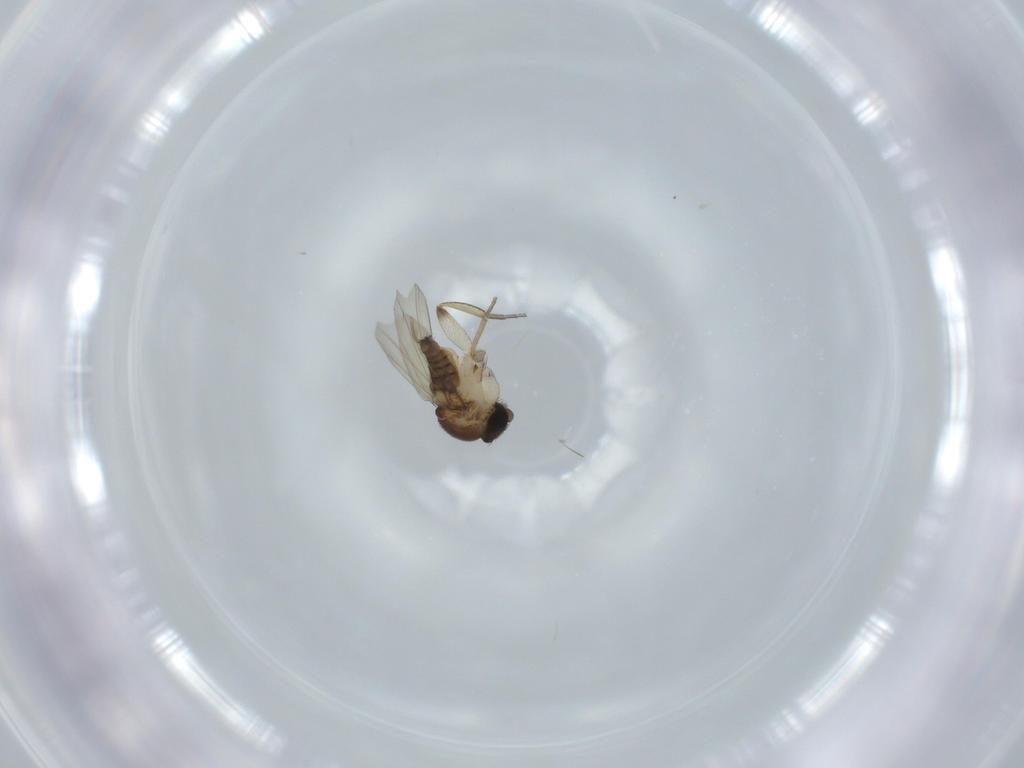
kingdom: Animalia
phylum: Arthropoda
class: Insecta
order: Diptera
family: Phoridae
